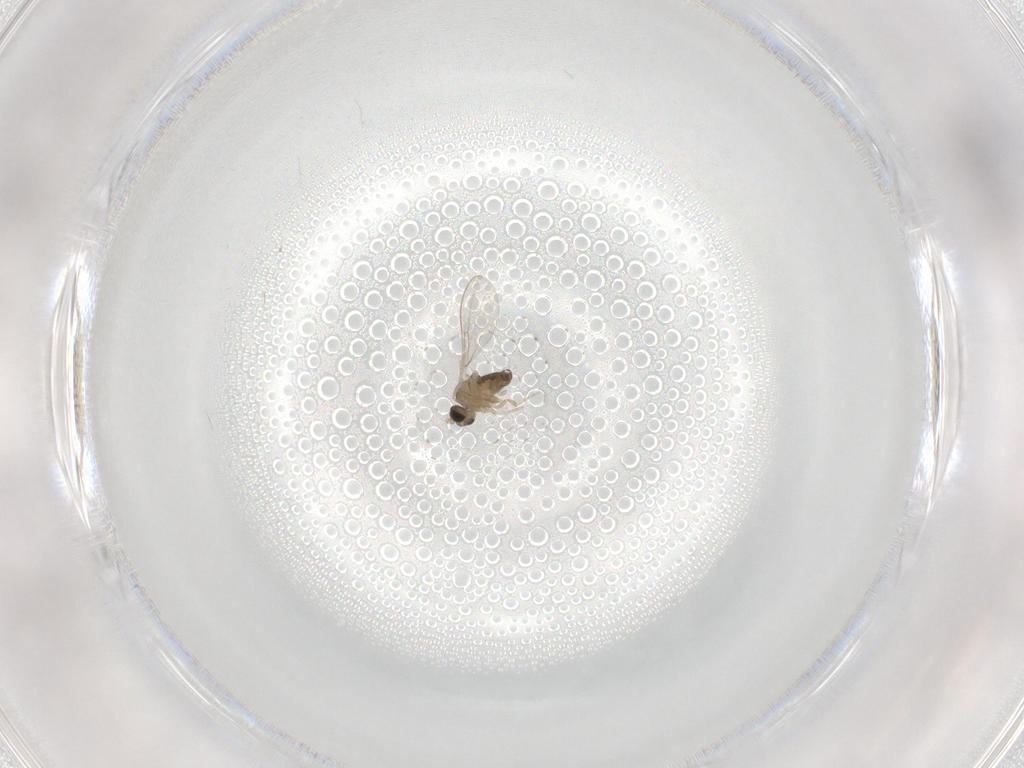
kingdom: Animalia
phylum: Arthropoda
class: Insecta
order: Diptera
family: Cecidomyiidae
